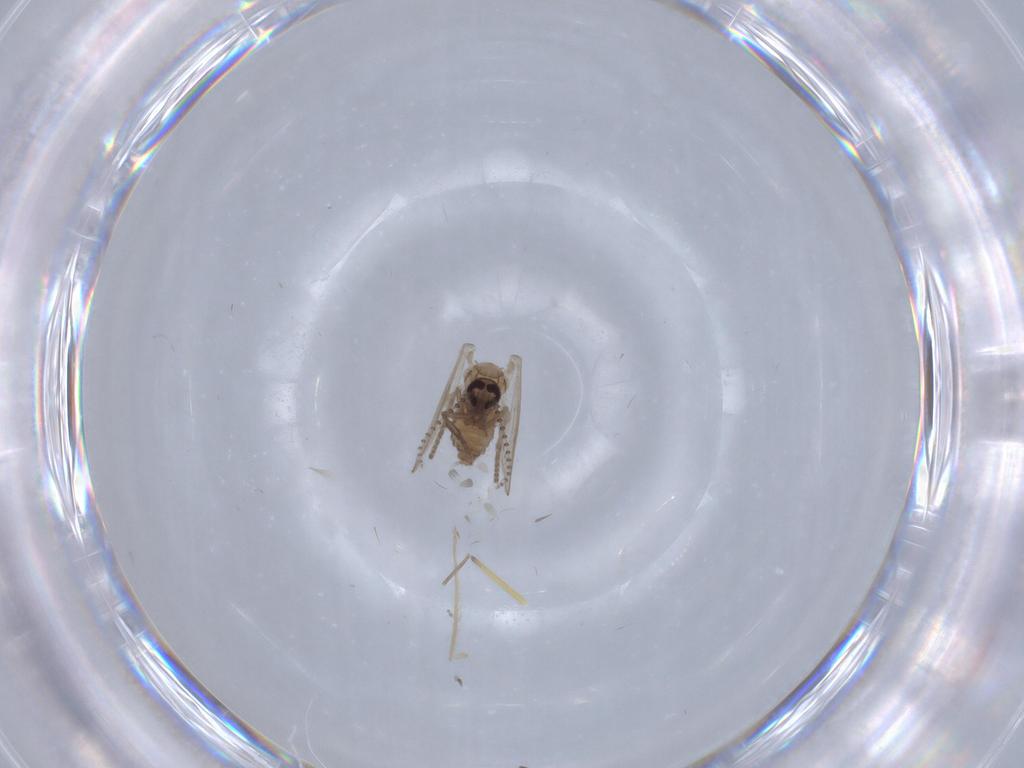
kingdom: Animalia
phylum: Arthropoda
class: Insecta
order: Diptera
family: Psychodidae
